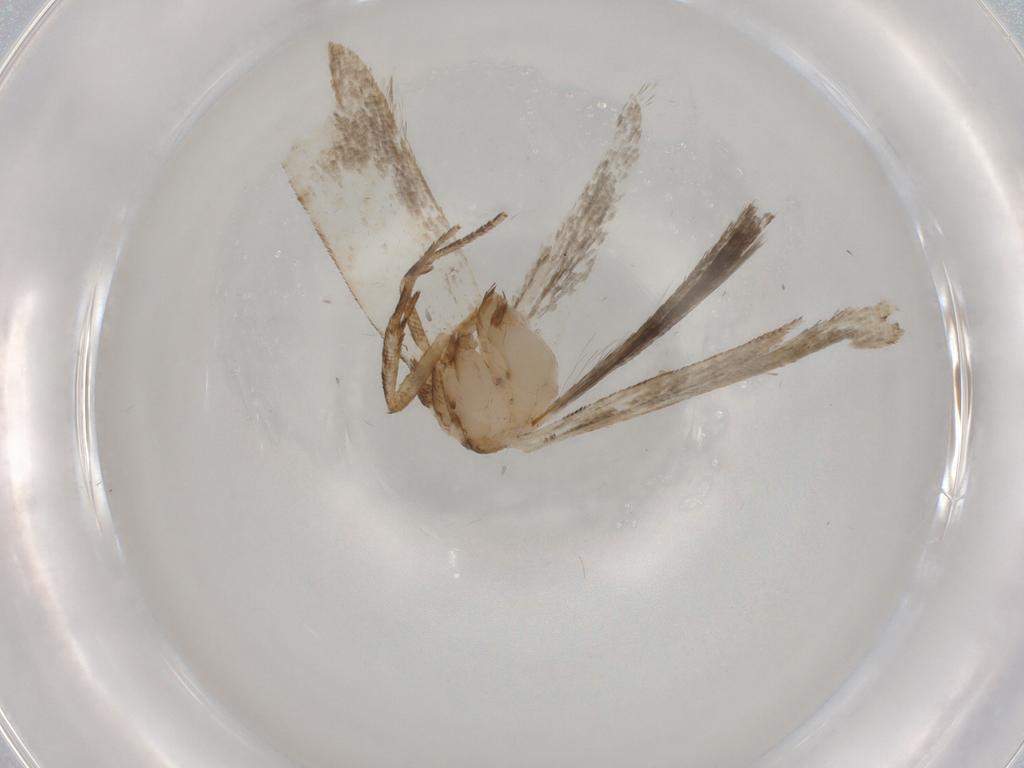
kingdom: Animalia
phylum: Arthropoda
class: Insecta
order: Lepidoptera
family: Gelechiidae
